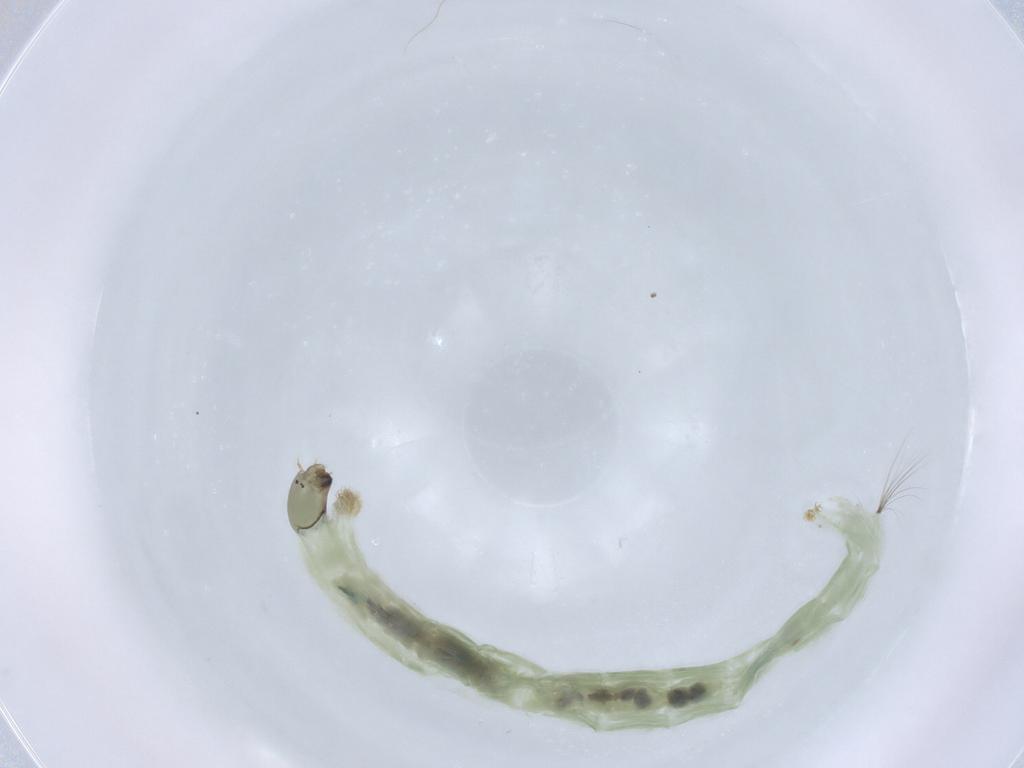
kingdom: Animalia
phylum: Arthropoda
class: Insecta
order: Diptera
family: Chironomidae
